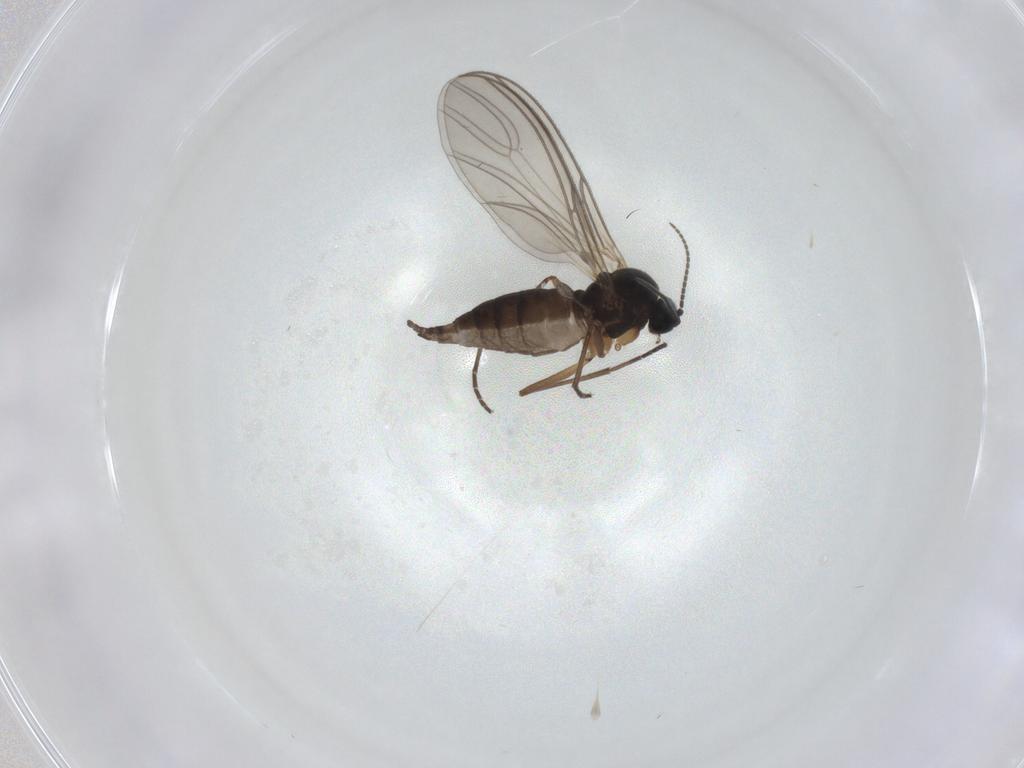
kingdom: Animalia
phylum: Arthropoda
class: Insecta
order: Diptera
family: Sciaridae
